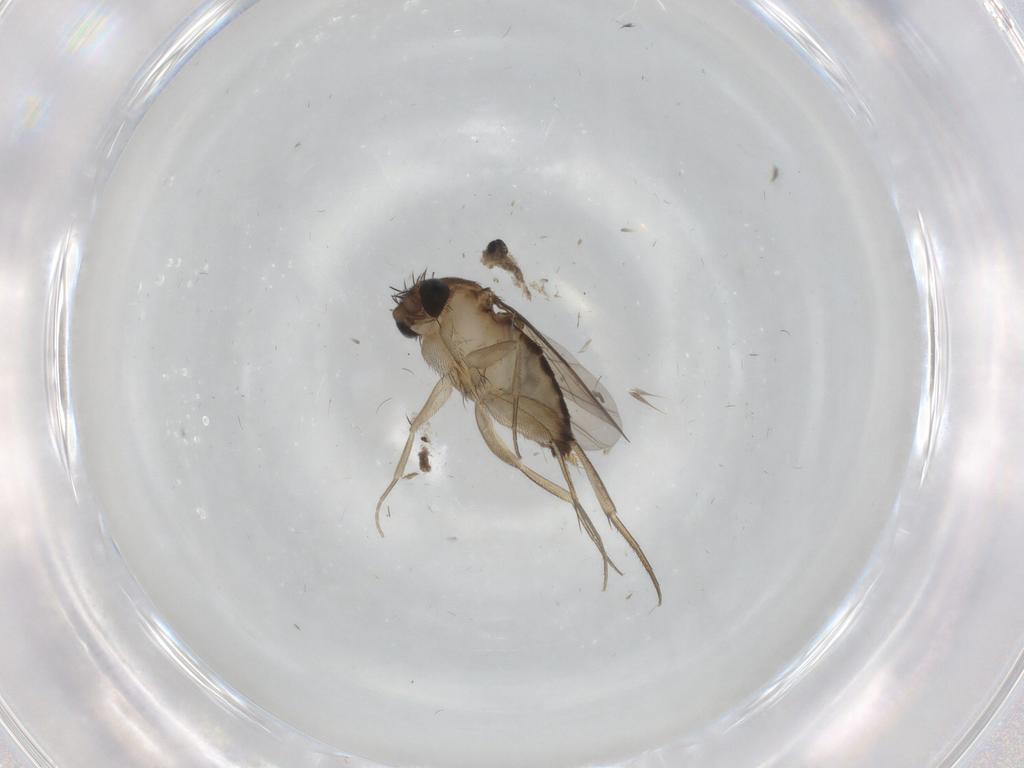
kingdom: Animalia
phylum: Arthropoda
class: Insecta
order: Diptera
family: Phoridae
